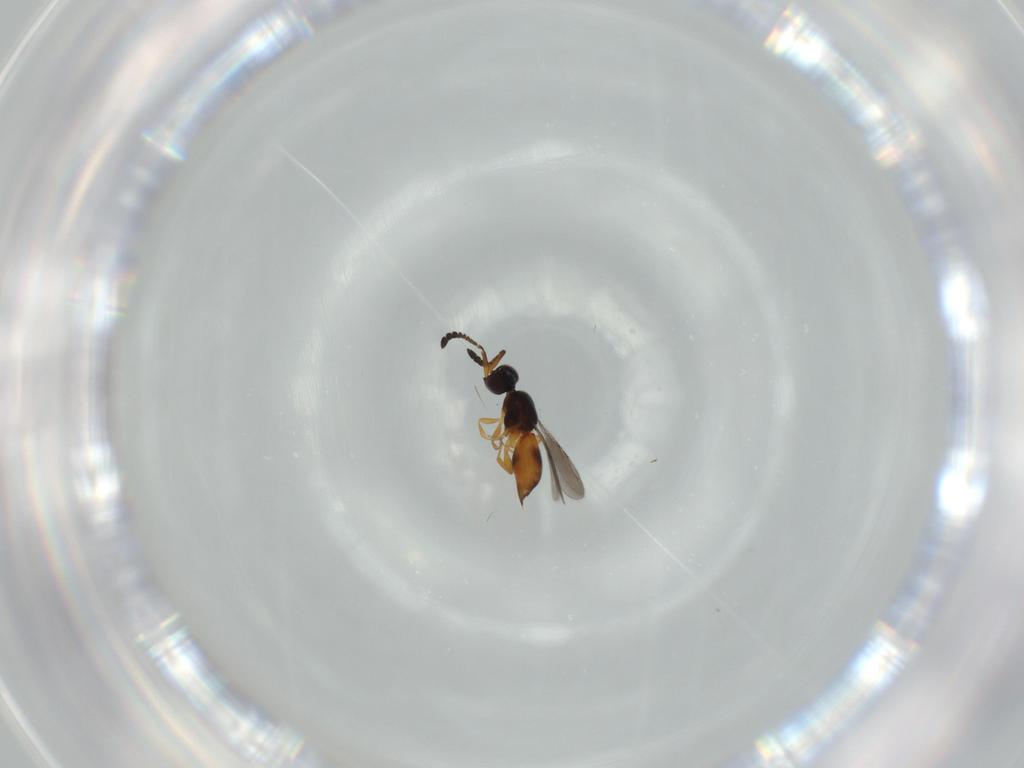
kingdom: Animalia
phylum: Arthropoda
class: Insecta
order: Hymenoptera
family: Ceraphronidae
